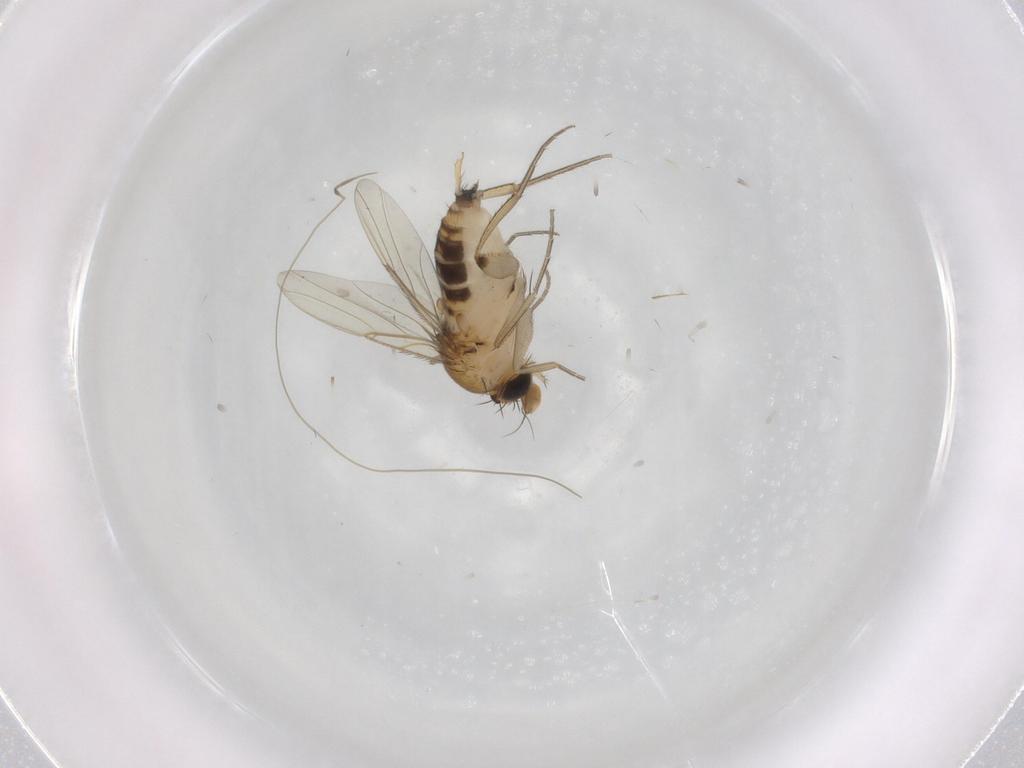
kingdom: Animalia
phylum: Arthropoda
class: Insecta
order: Diptera
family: Phoridae
